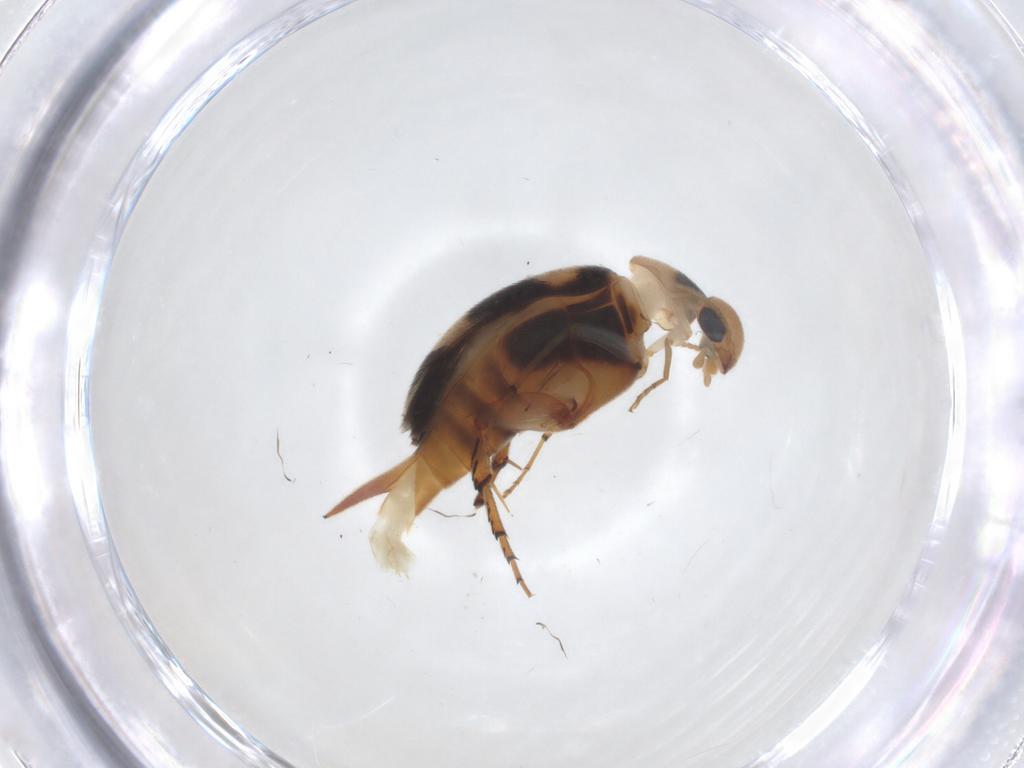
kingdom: Animalia
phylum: Arthropoda
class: Insecta
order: Coleoptera
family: Mordellidae
